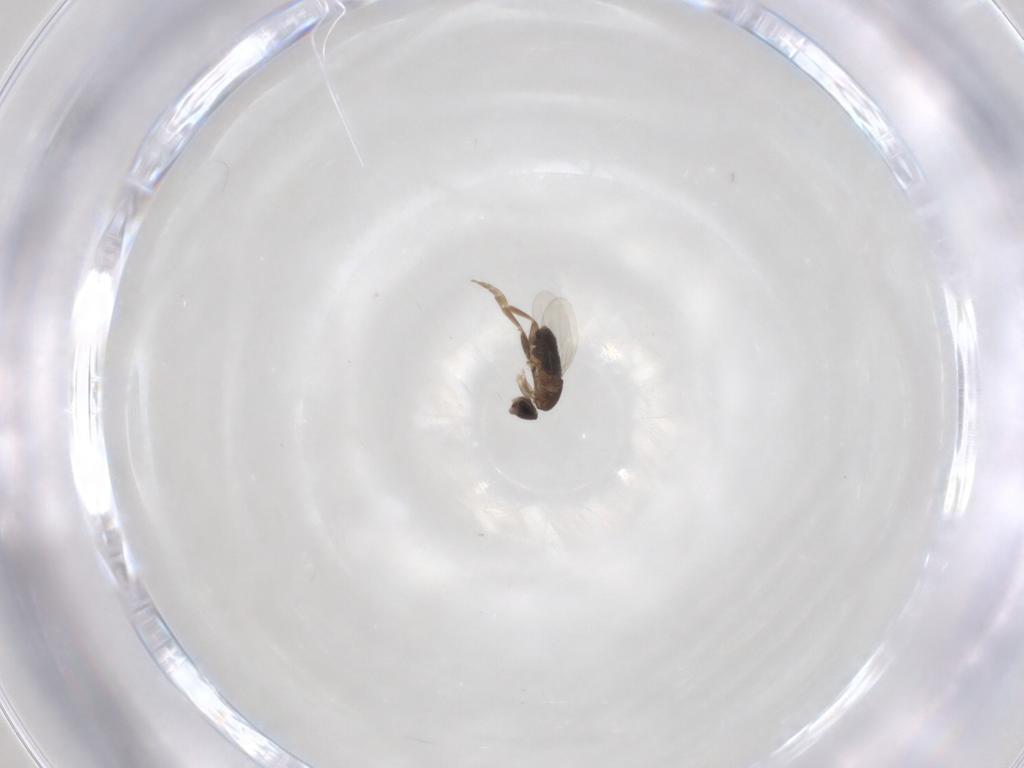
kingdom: Animalia
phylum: Arthropoda
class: Insecta
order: Diptera
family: Phoridae
